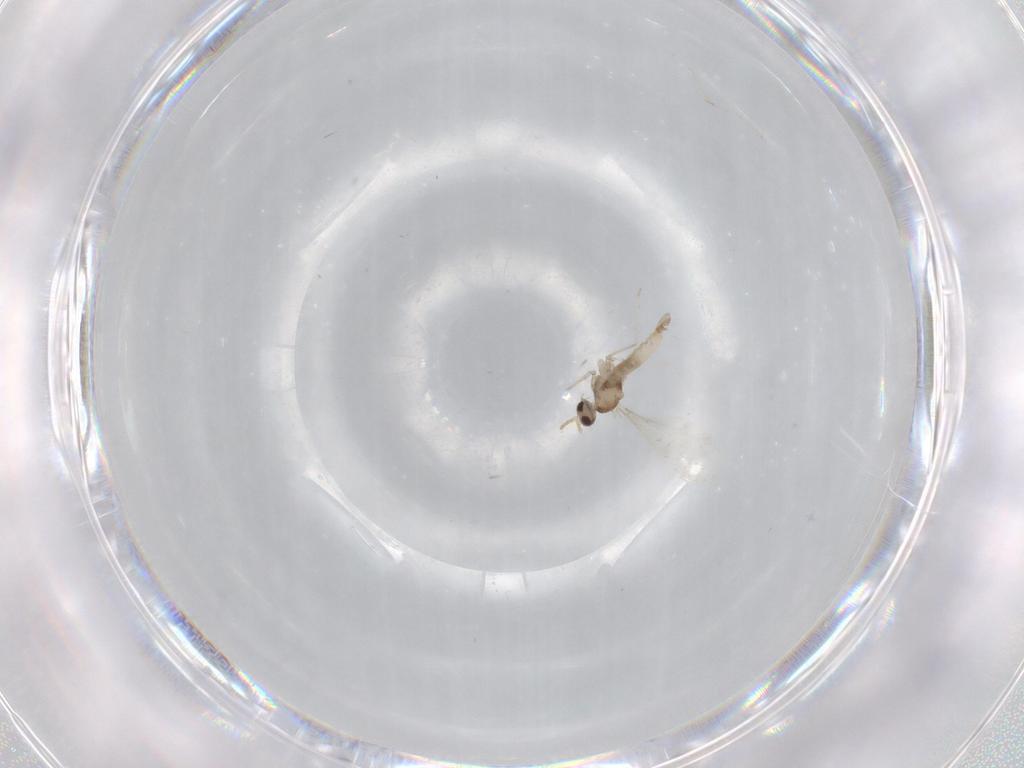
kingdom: Animalia
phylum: Arthropoda
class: Insecta
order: Diptera
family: Cecidomyiidae
